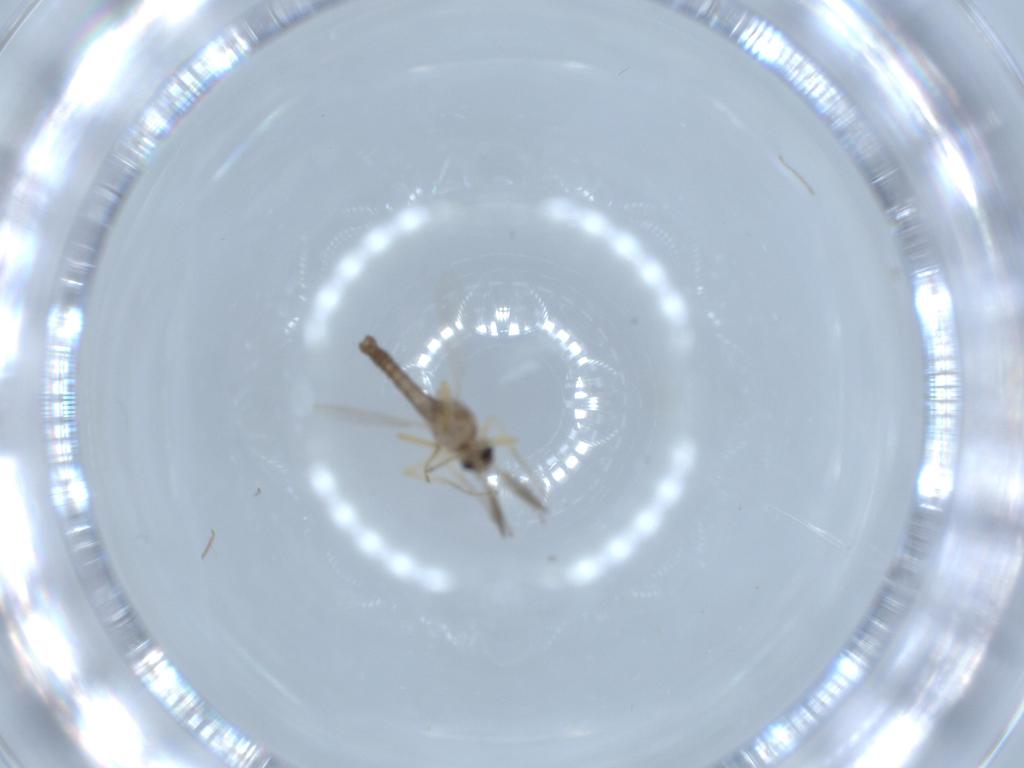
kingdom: Animalia
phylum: Arthropoda
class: Insecta
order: Diptera
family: Ceratopogonidae
